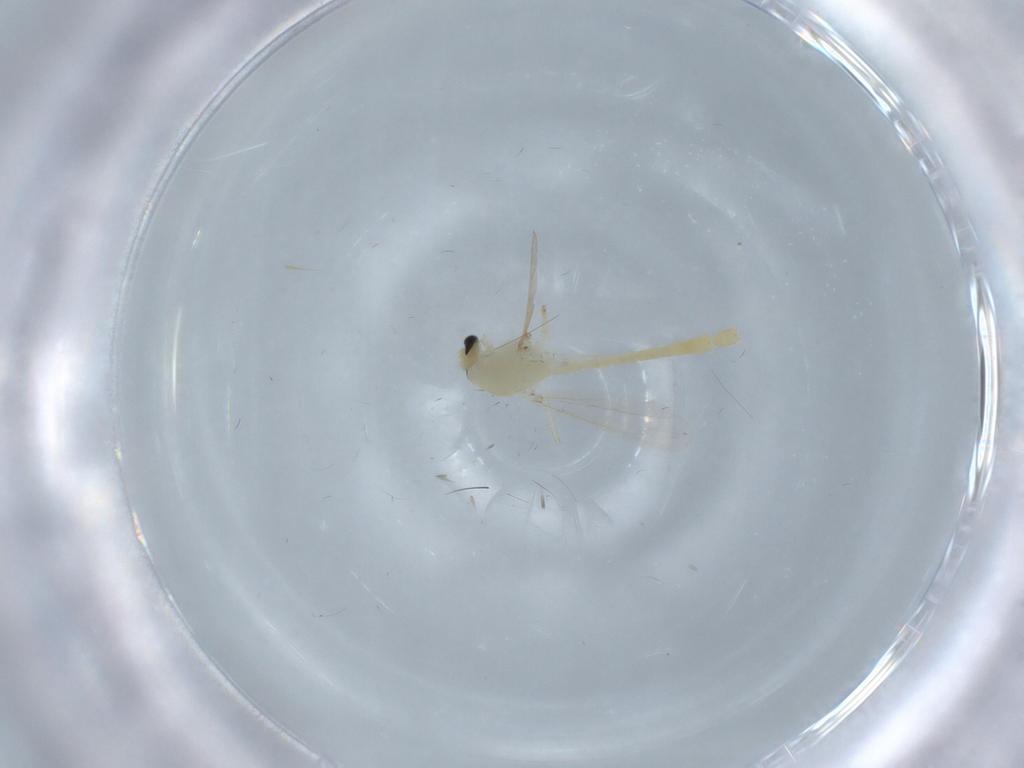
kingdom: Animalia
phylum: Arthropoda
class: Insecta
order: Diptera
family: Chironomidae
